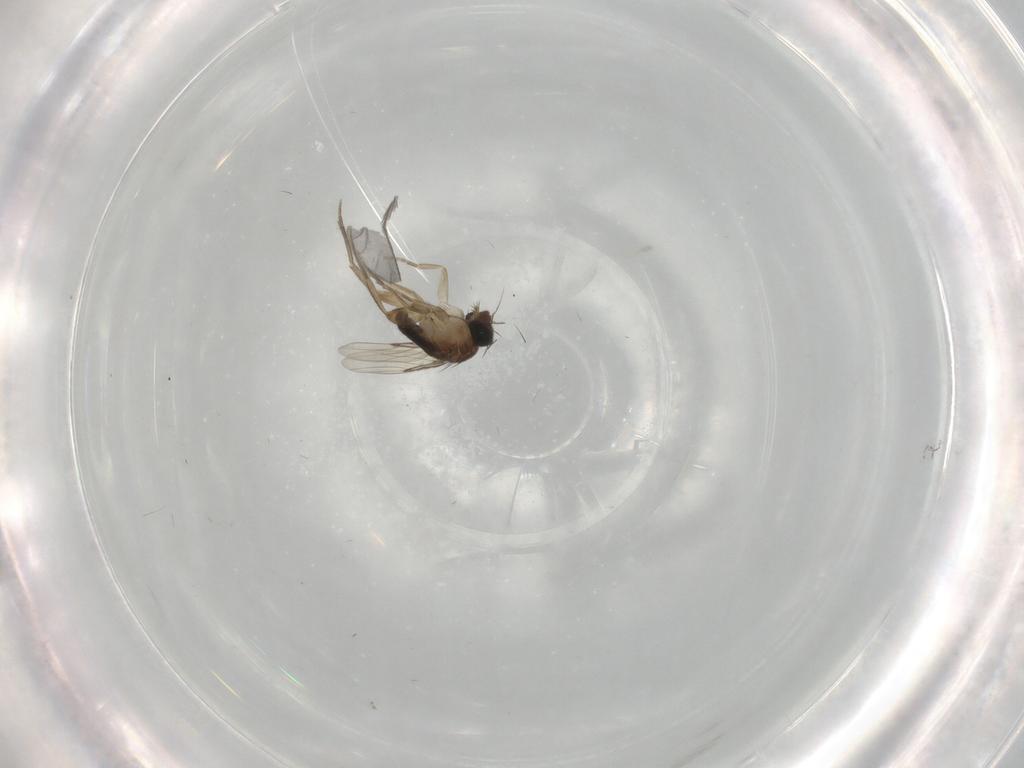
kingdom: Animalia
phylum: Arthropoda
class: Insecta
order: Diptera
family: Phoridae
